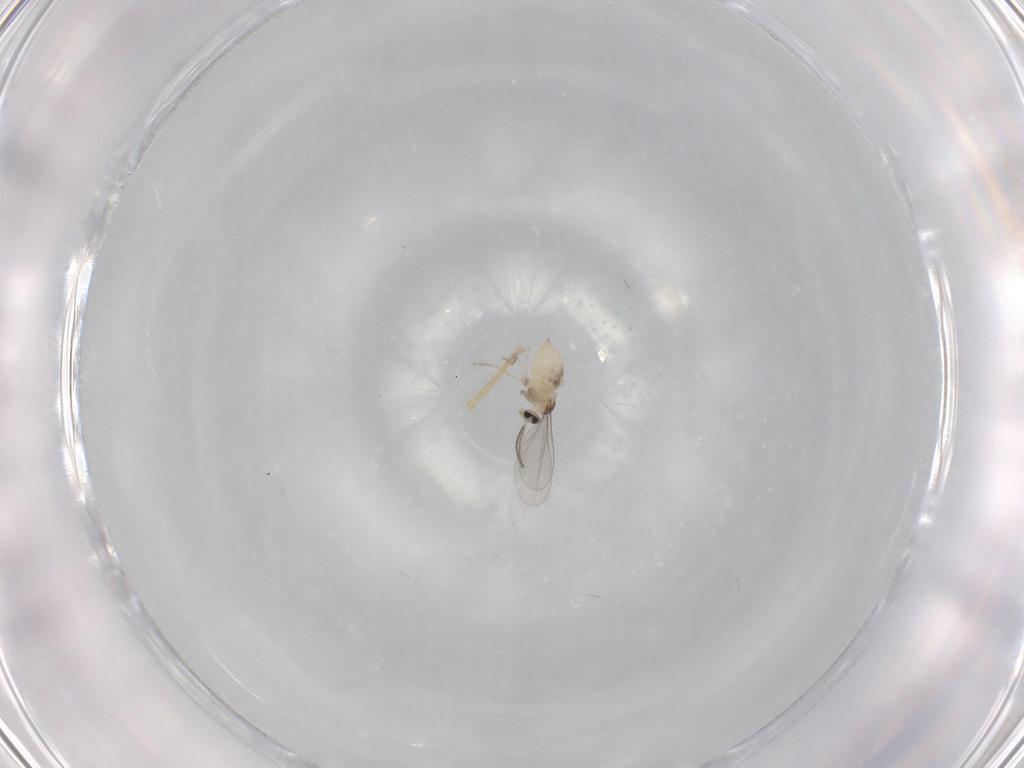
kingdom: Animalia
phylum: Arthropoda
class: Insecta
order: Diptera
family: Cecidomyiidae
